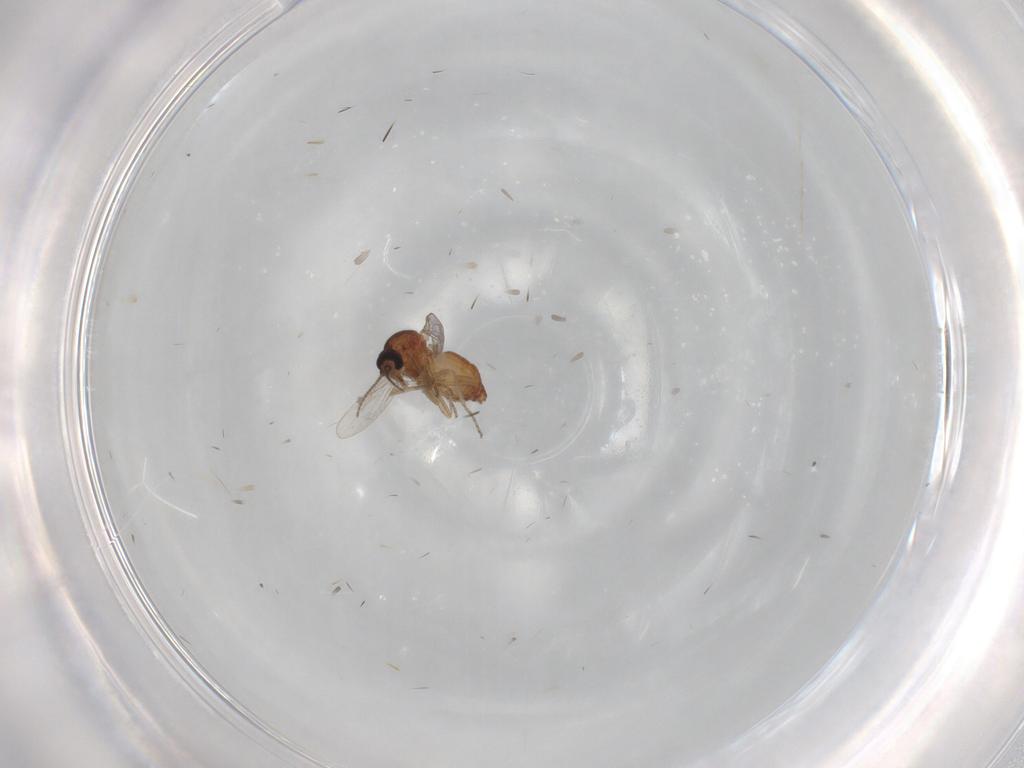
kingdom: Animalia
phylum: Arthropoda
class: Insecta
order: Diptera
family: Ceratopogonidae
